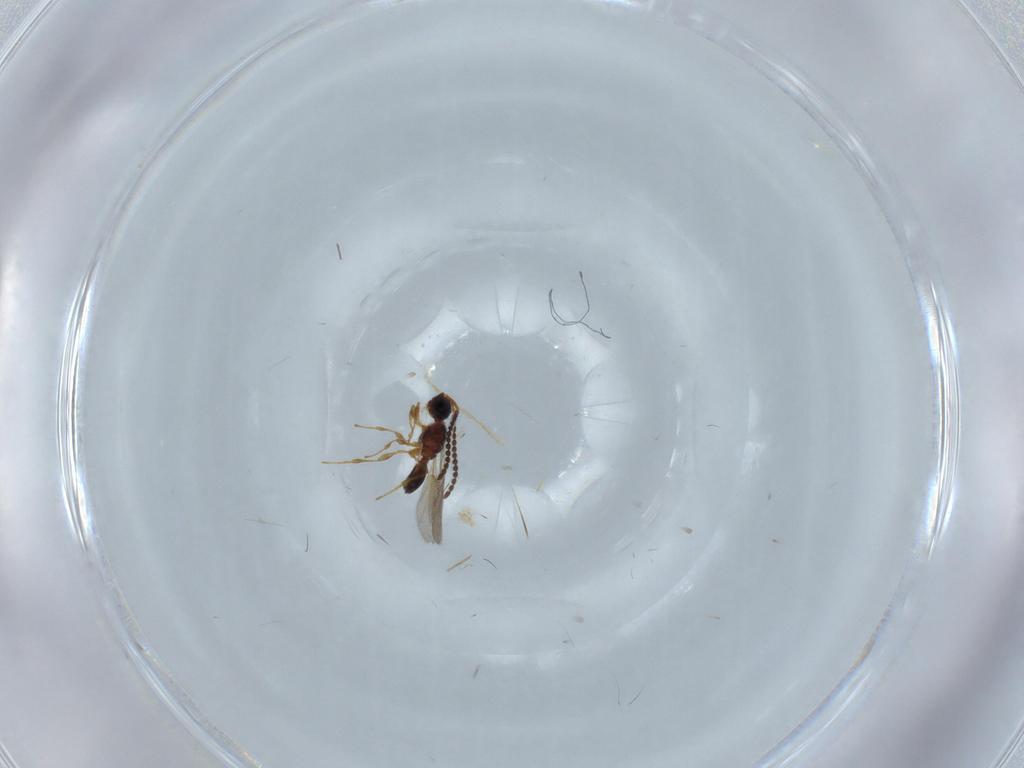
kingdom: Animalia
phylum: Arthropoda
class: Insecta
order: Hymenoptera
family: Diapriidae
